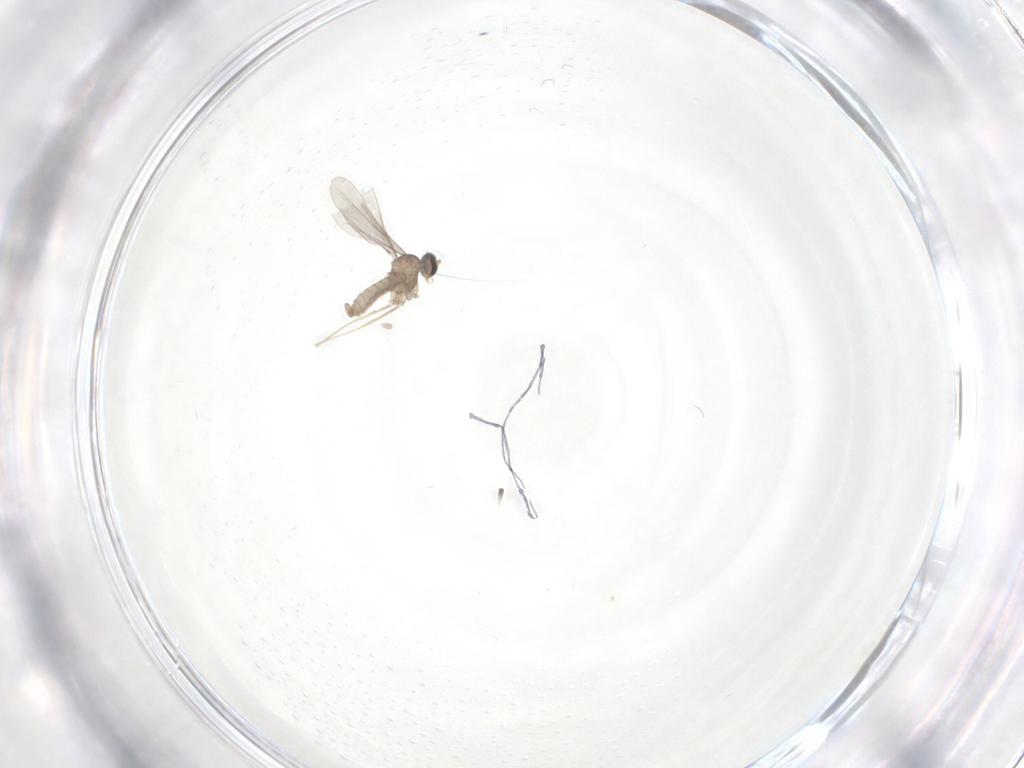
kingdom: Animalia
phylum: Arthropoda
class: Insecta
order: Diptera
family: Cecidomyiidae
